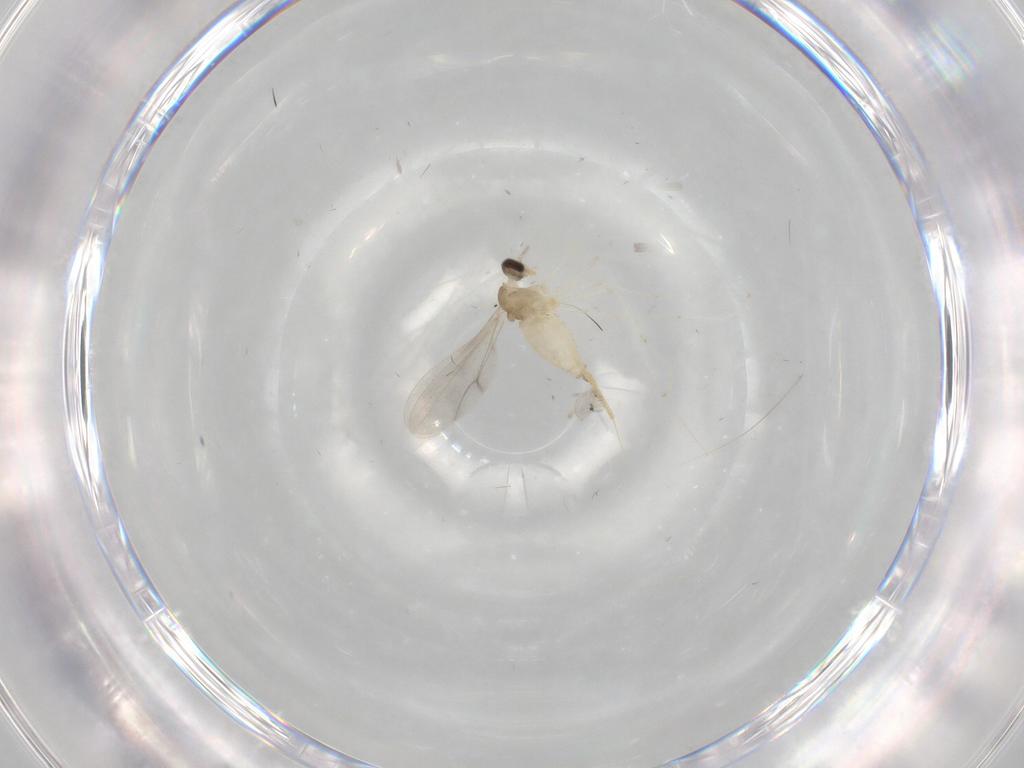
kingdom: Animalia
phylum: Arthropoda
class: Insecta
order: Diptera
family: Cecidomyiidae
